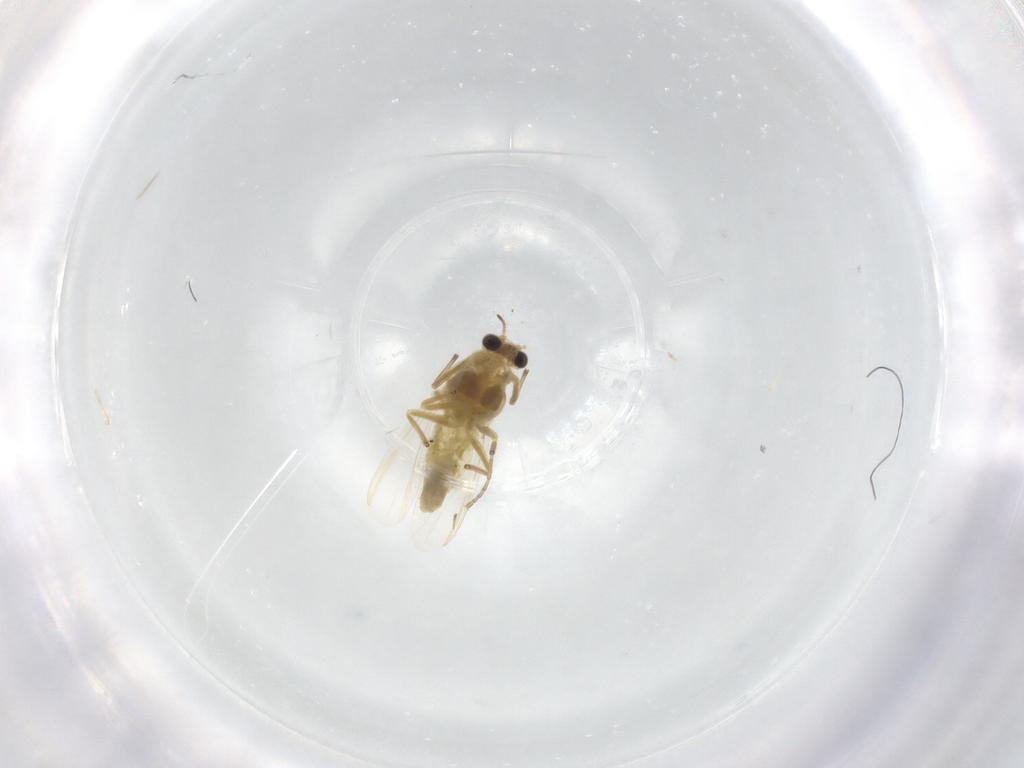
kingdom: Animalia
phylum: Arthropoda
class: Insecta
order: Diptera
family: Chironomidae
